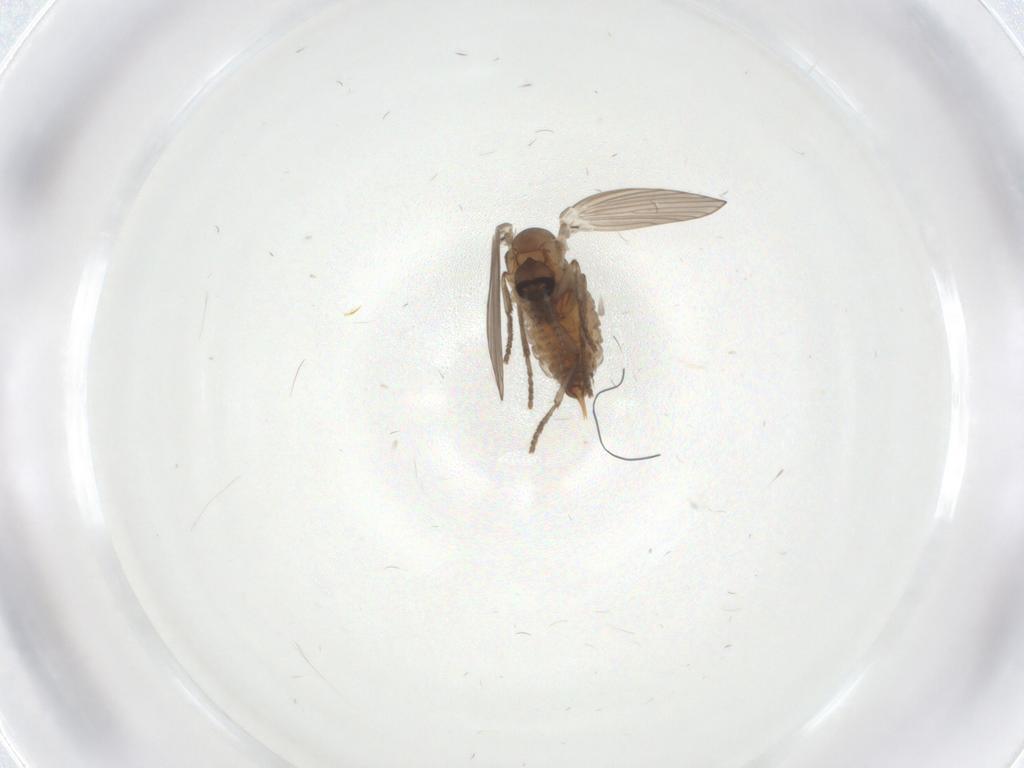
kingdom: Animalia
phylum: Arthropoda
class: Insecta
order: Diptera
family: Psychodidae
